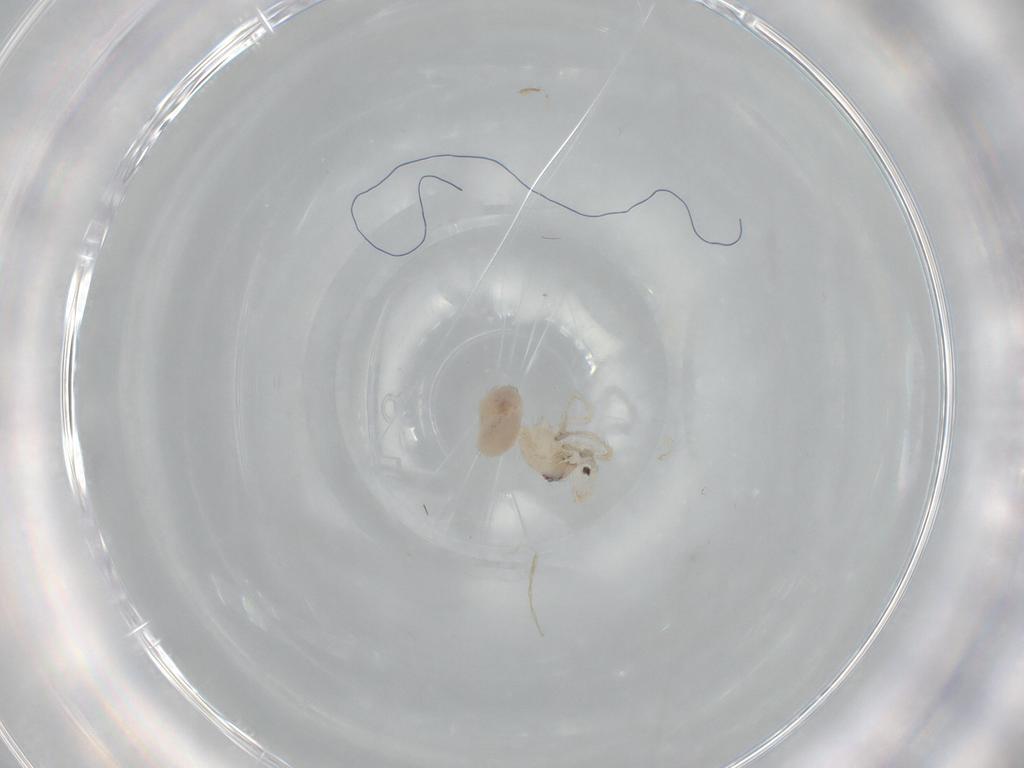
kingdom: Animalia
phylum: Arthropoda
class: Arachnida
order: Araneae
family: Oonopidae
